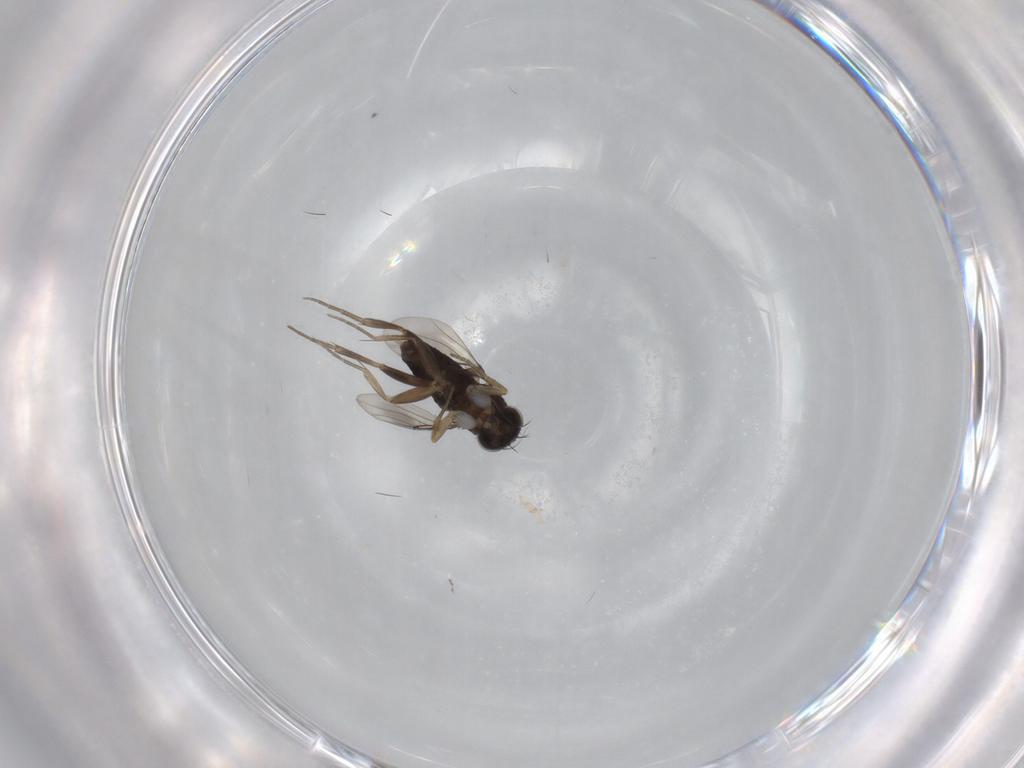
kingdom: Animalia
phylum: Arthropoda
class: Insecta
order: Diptera
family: Phoridae
